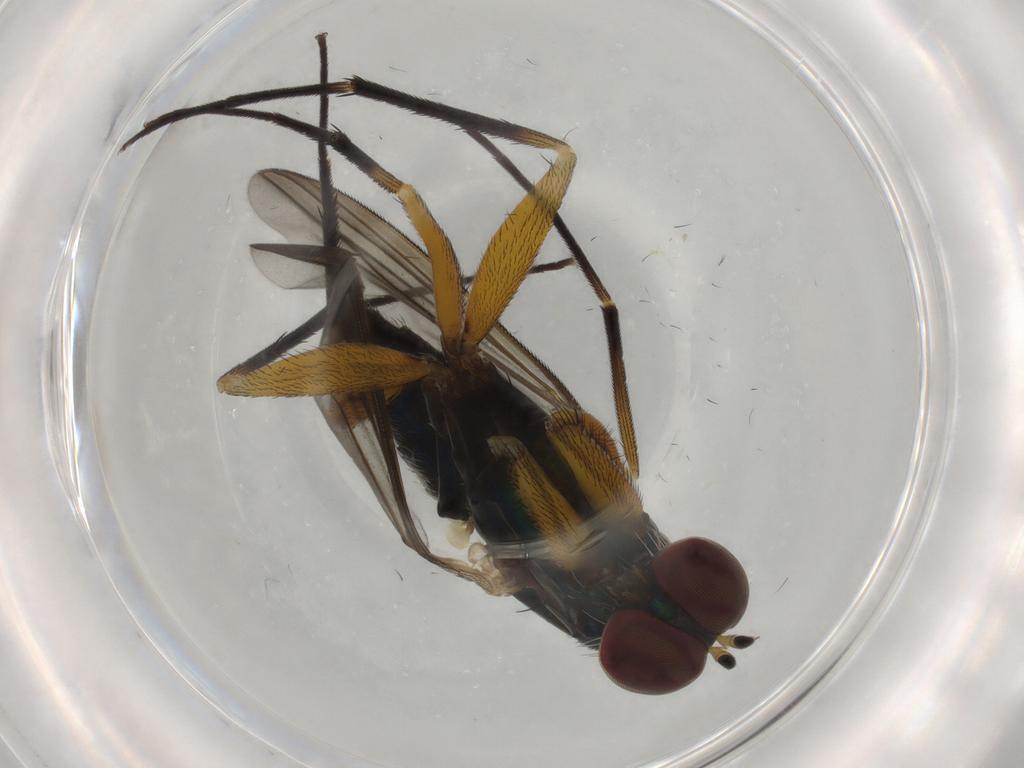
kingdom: Animalia
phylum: Arthropoda
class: Insecta
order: Diptera
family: Dolichopodidae
